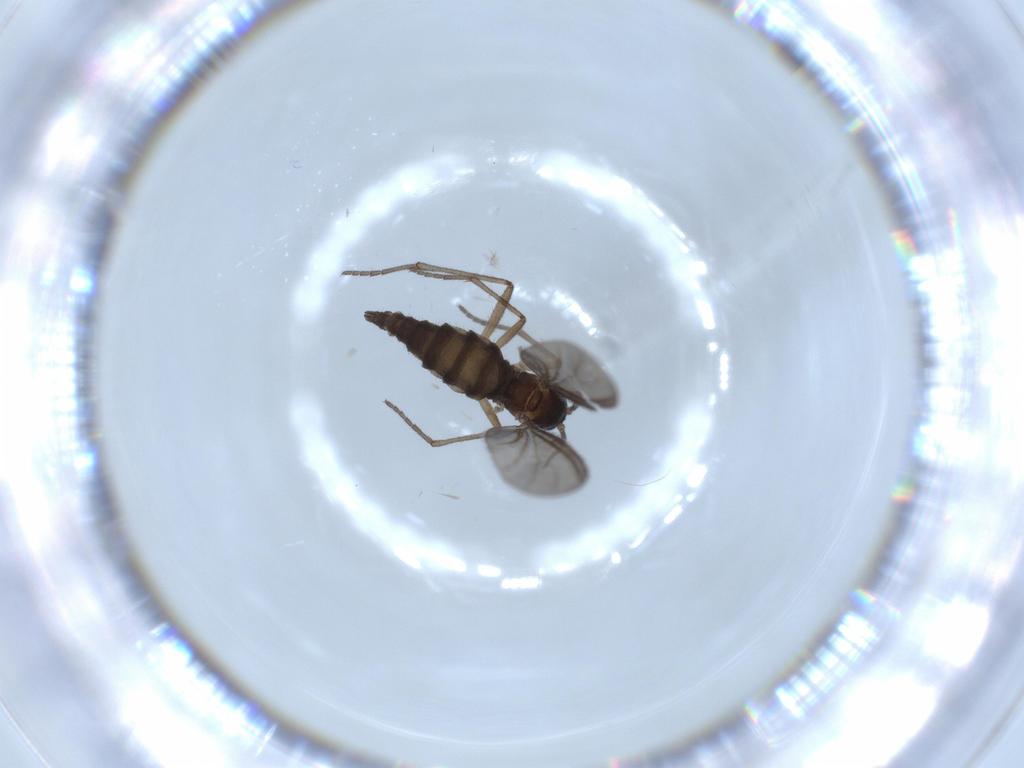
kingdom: Animalia
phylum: Arthropoda
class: Insecta
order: Diptera
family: Sciaridae
